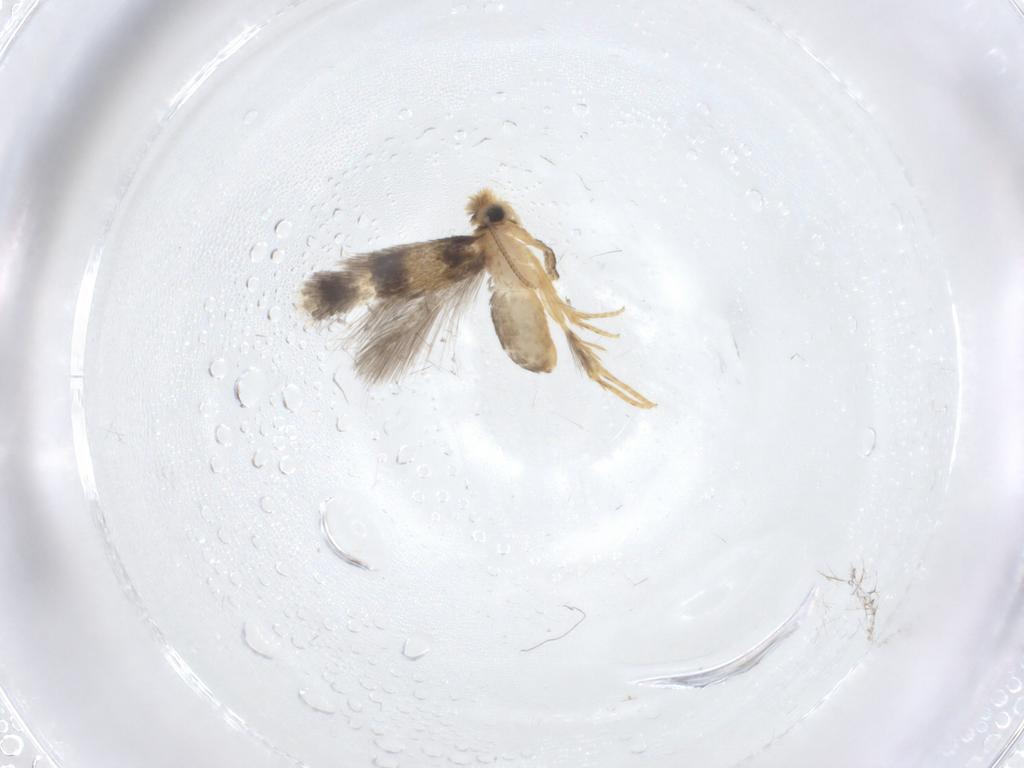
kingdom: Animalia
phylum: Arthropoda
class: Insecta
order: Lepidoptera
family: Nepticulidae
